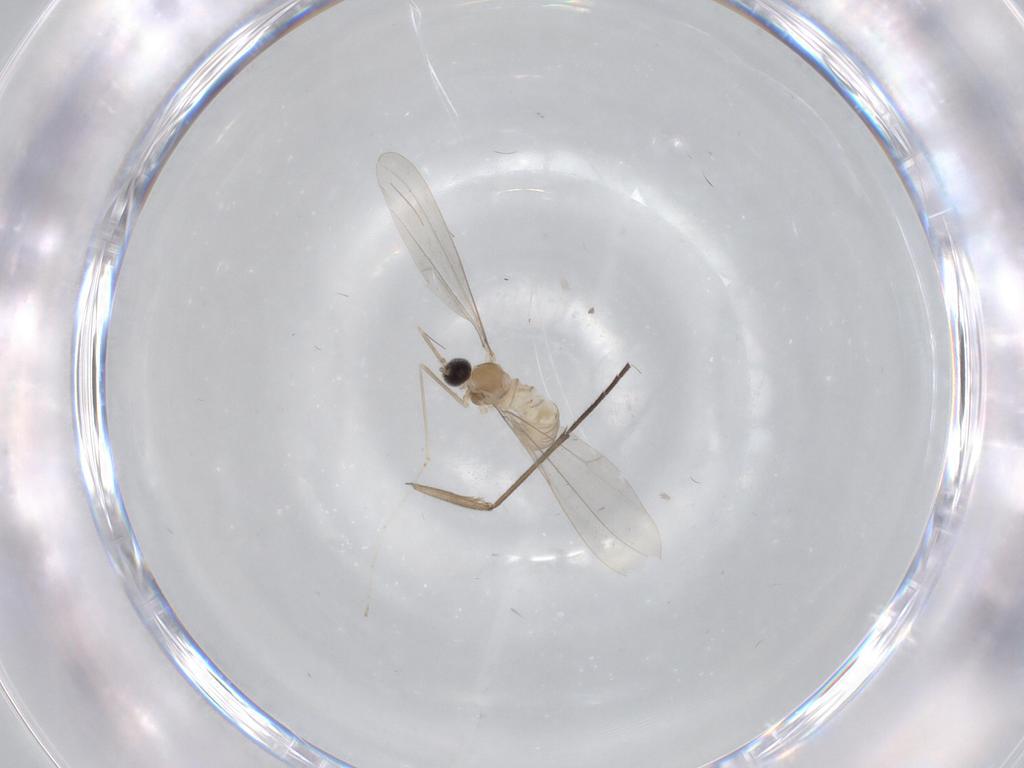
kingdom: Animalia
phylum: Arthropoda
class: Insecta
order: Diptera
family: Cecidomyiidae
